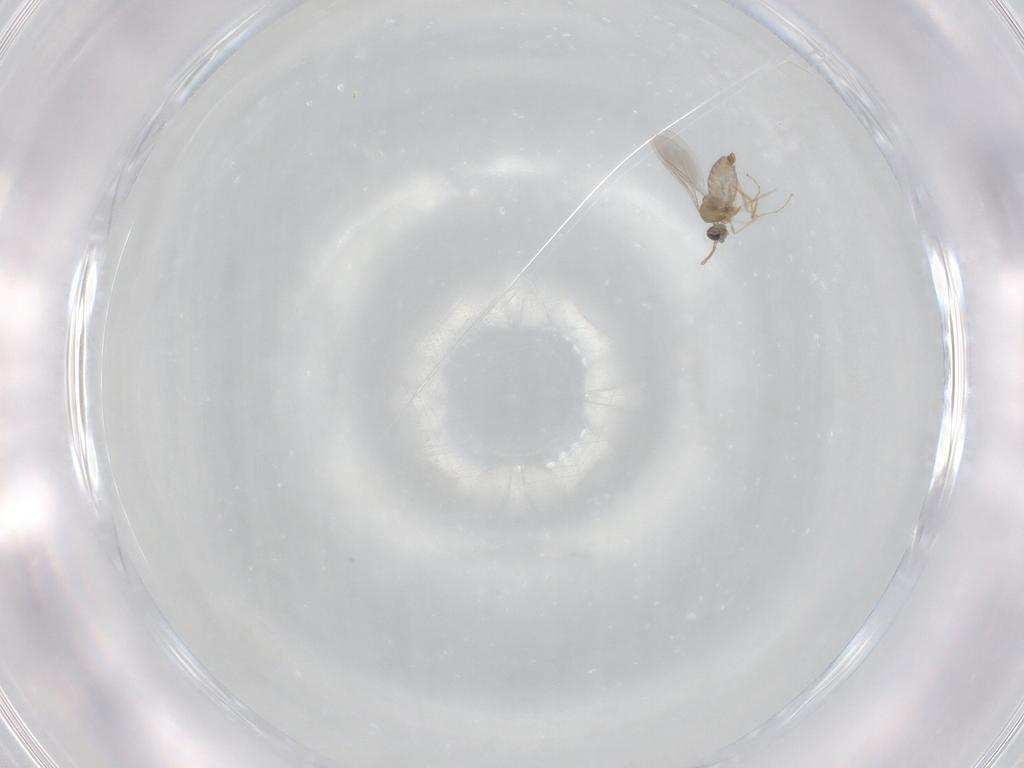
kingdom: Animalia
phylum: Arthropoda
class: Insecta
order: Diptera
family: Cecidomyiidae
